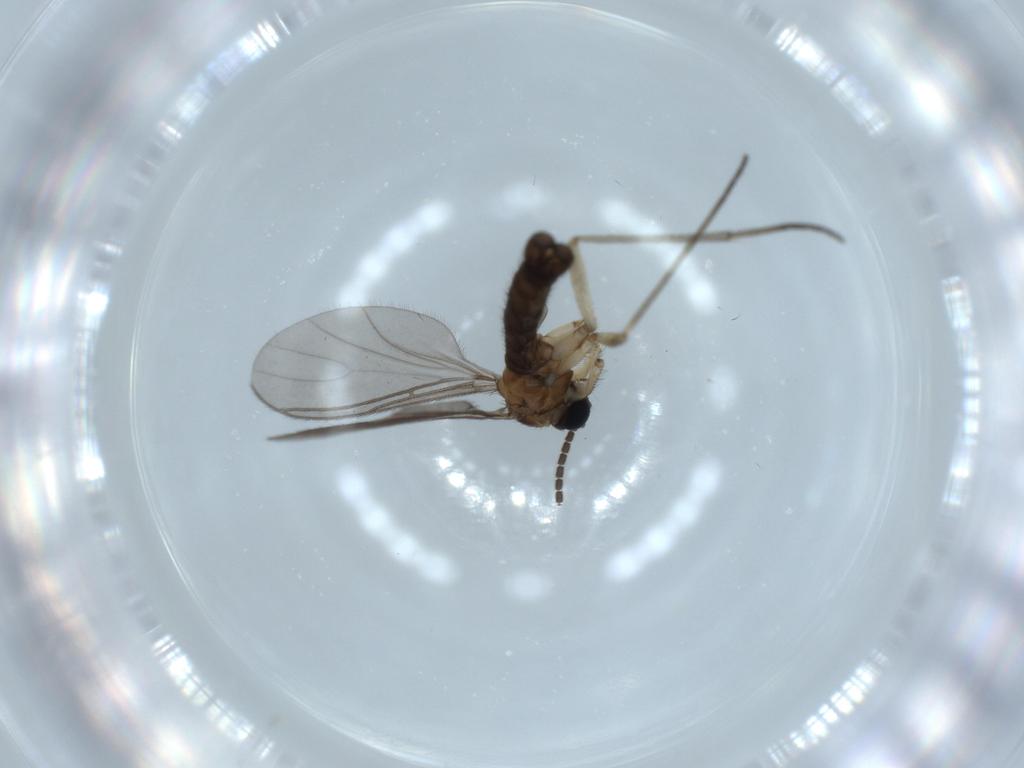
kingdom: Animalia
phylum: Arthropoda
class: Insecta
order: Diptera
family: Sciaridae
